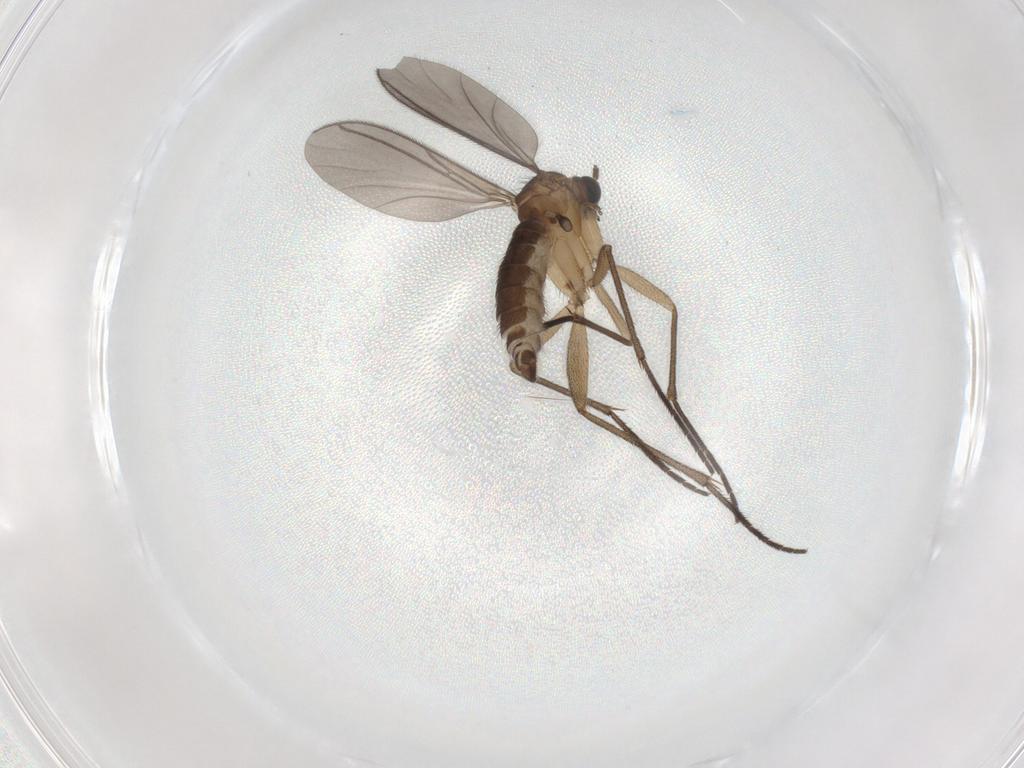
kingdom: Animalia
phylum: Arthropoda
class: Insecta
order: Diptera
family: Sciaridae
